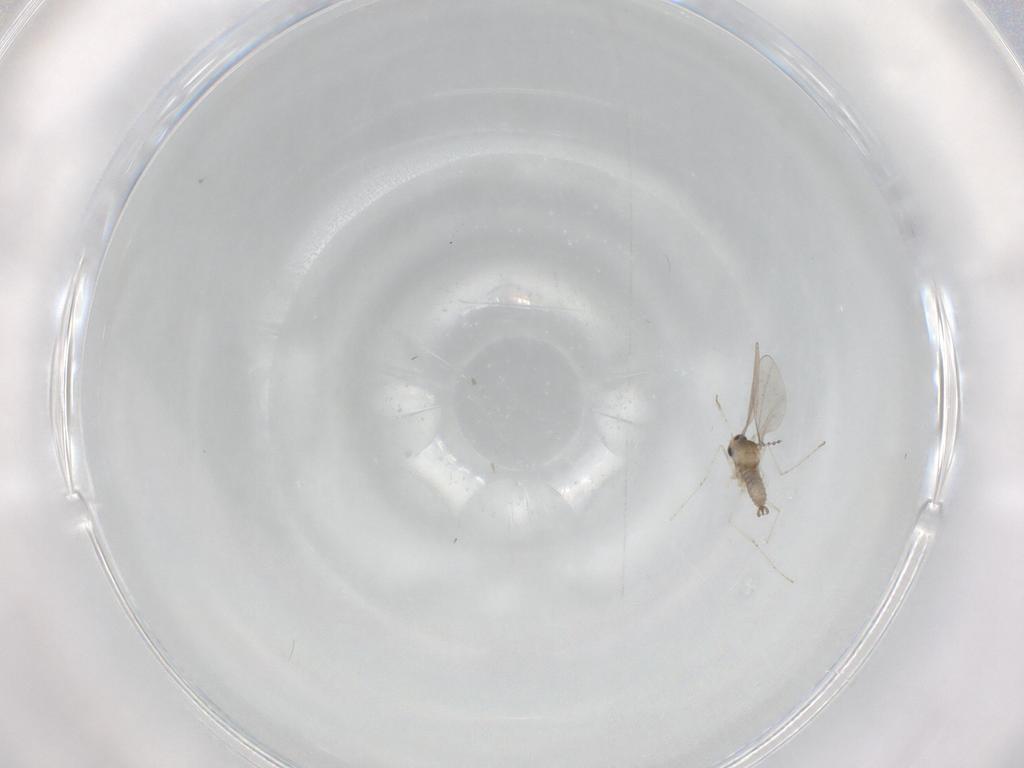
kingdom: Animalia
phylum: Arthropoda
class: Insecta
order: Diptera
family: Cecidomyiidae
